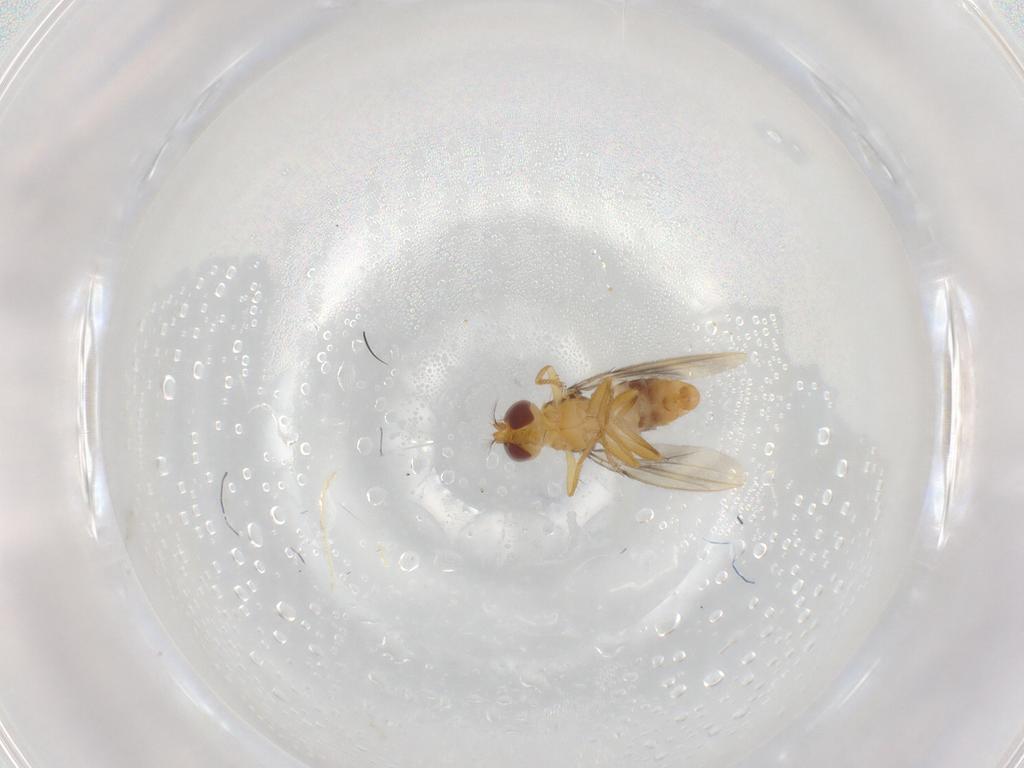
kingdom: Animalia
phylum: Arthropoda
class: Insecta
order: Diptera
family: Periscelididae
